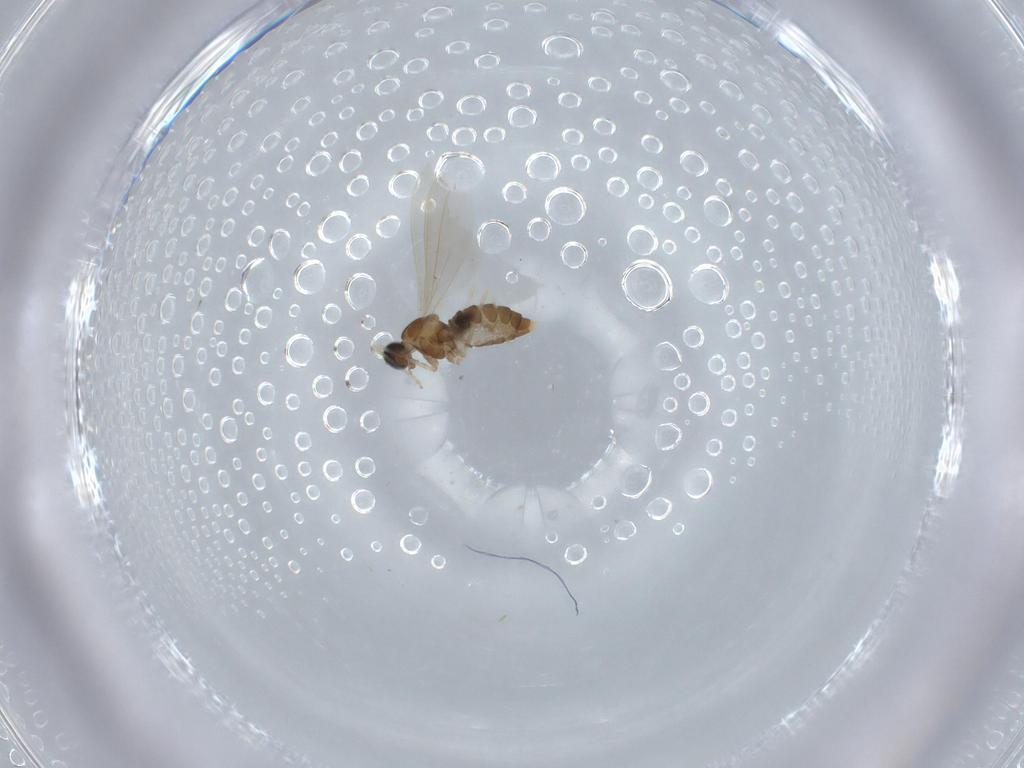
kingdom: Animalia
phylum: Arthropoda
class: Insecta
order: Diptera
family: Cecidomyiidae
